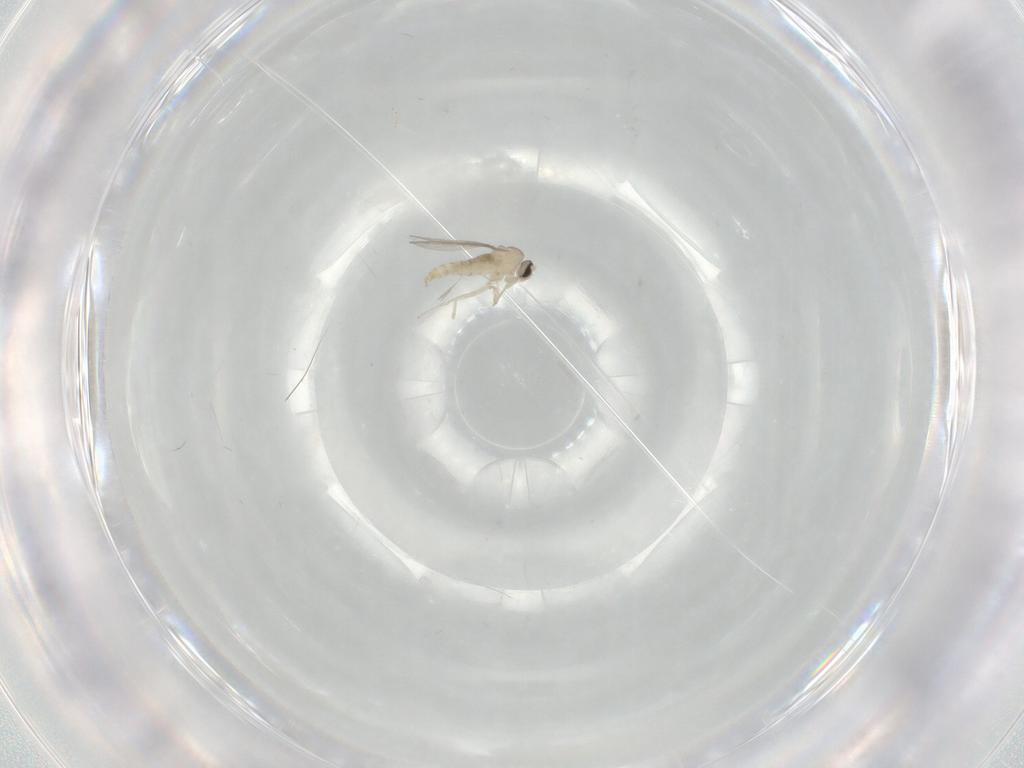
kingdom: Animalia
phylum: Arthropoda
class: Insecta
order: Diptera
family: Cecidomyiidae
